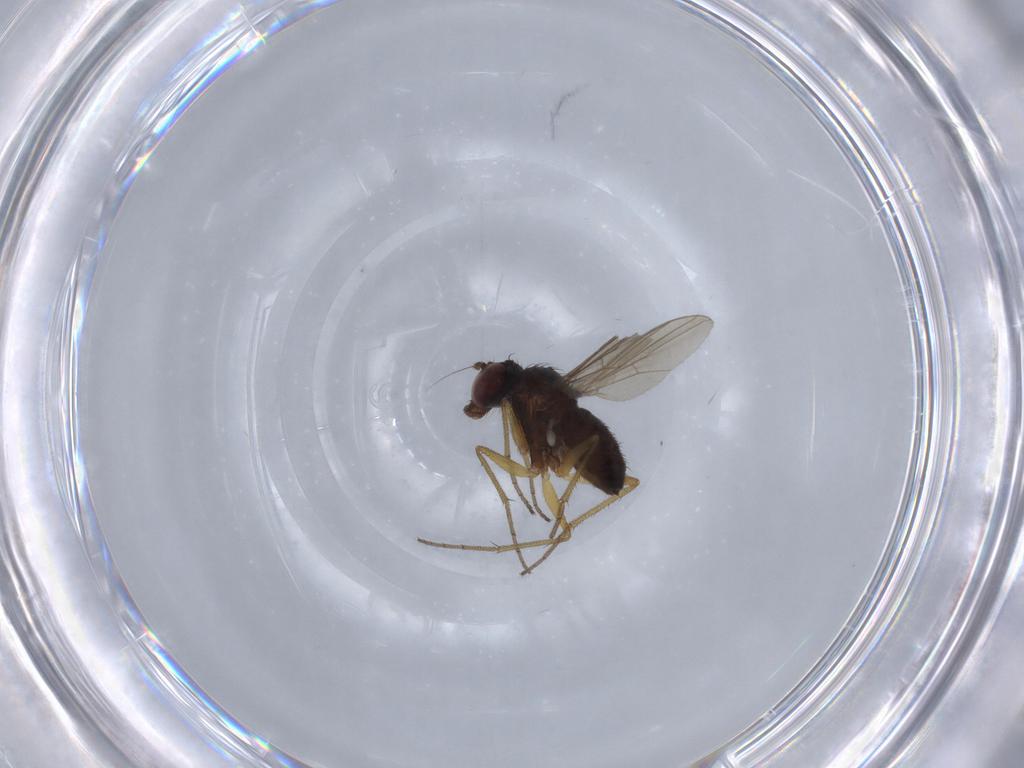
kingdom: Animalia
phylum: Arthropoda
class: Insecta
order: Diptera
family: Dolichopodidae
